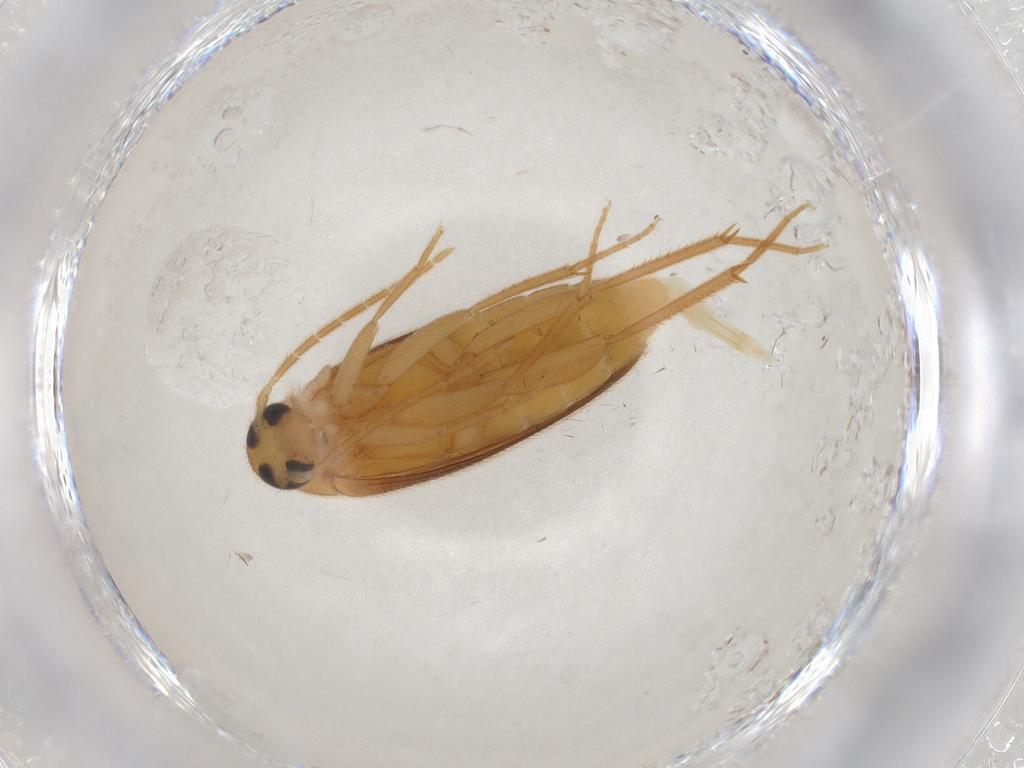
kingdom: Animalia
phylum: Arthropoda
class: Insecta
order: Coleoptera
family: Scraptiidae
